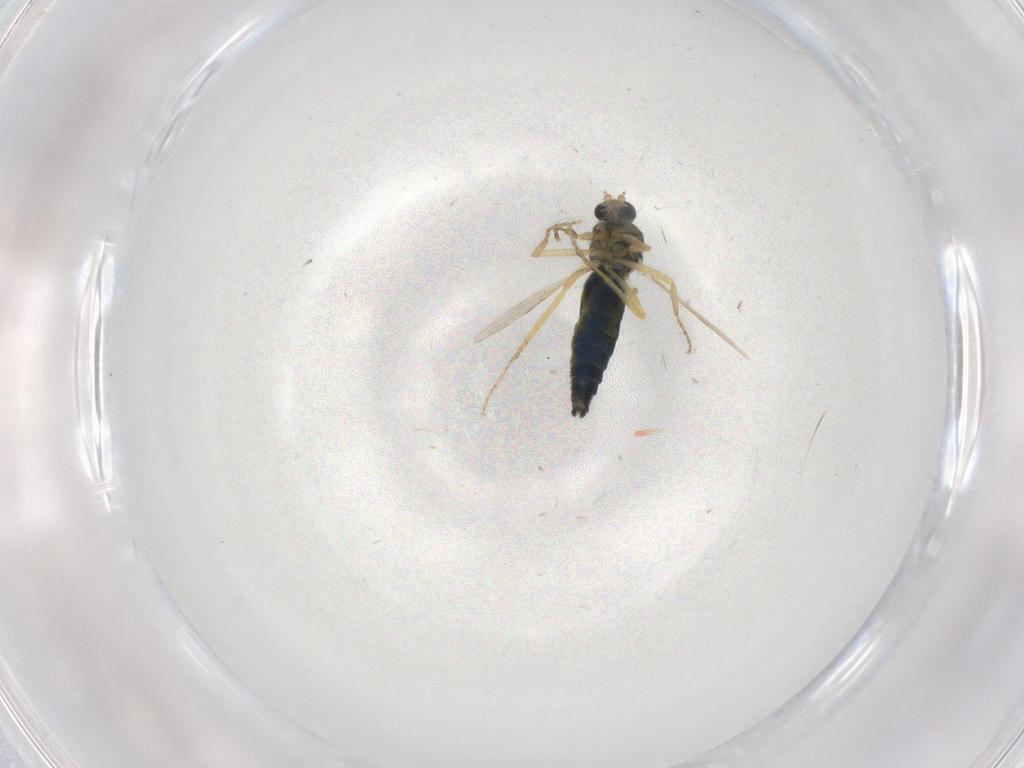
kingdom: Animalia
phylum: Arthropoda
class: Insecta
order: Diptera
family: Ceratopogonidae
